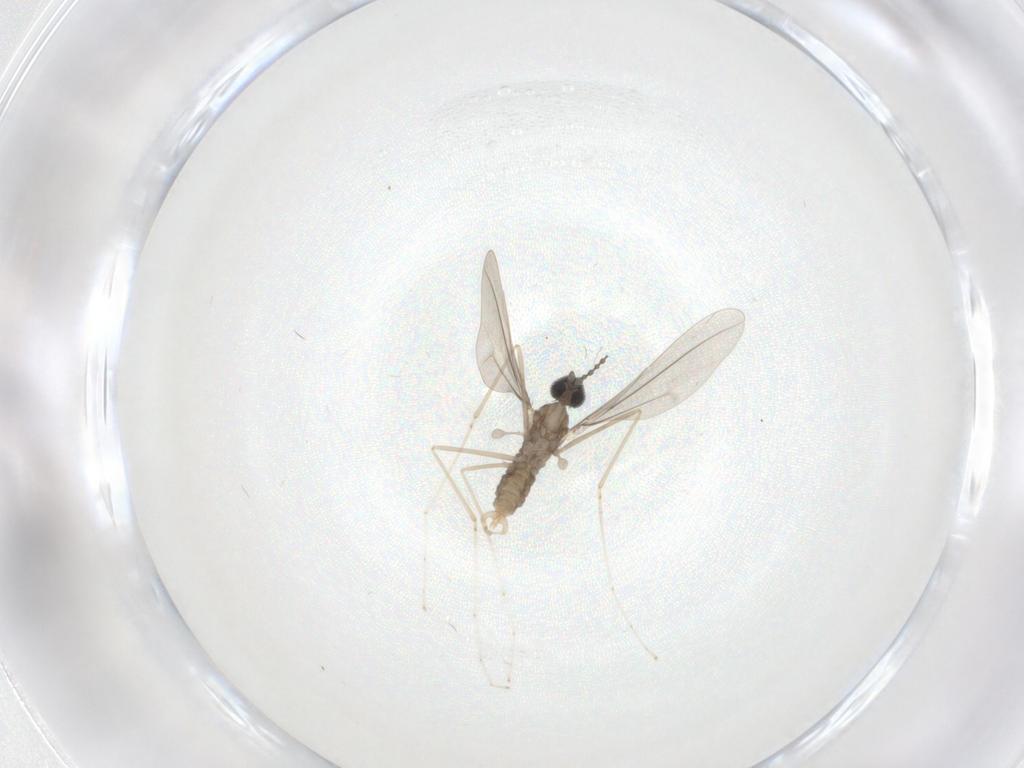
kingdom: Animalia
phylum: Arthropoda
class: Insecta
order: Diptera
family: Cecidomyiidae
